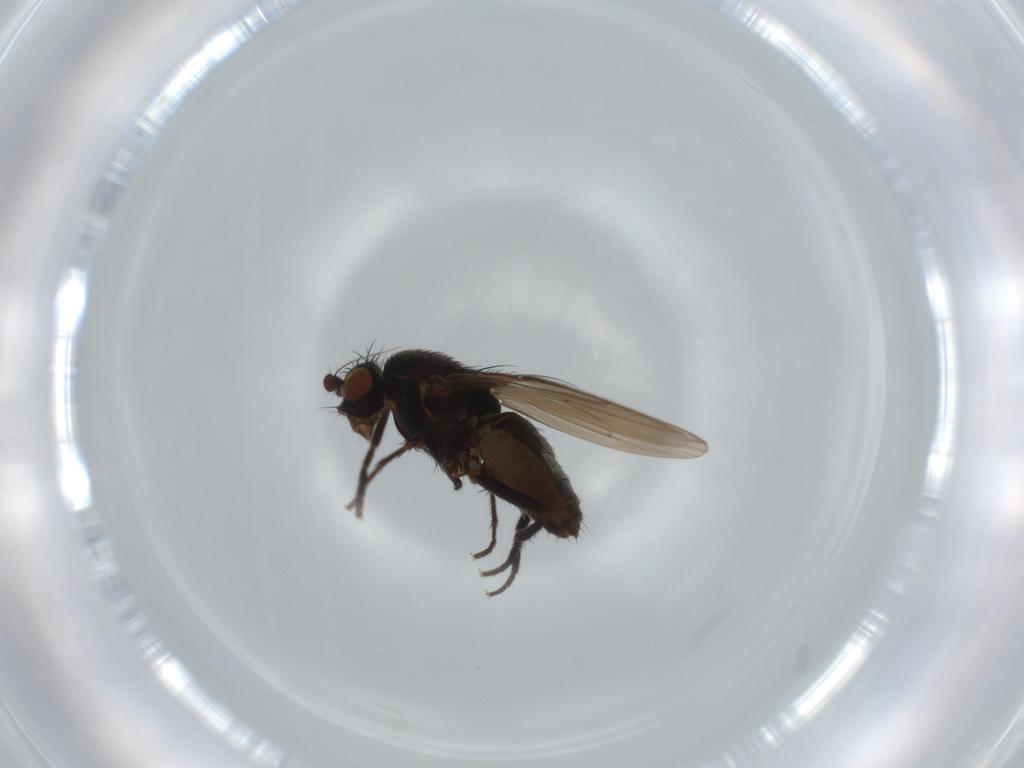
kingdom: Animalia
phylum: Arthropoda
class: Insecta
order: Diptera
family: Sphaeroceridae
